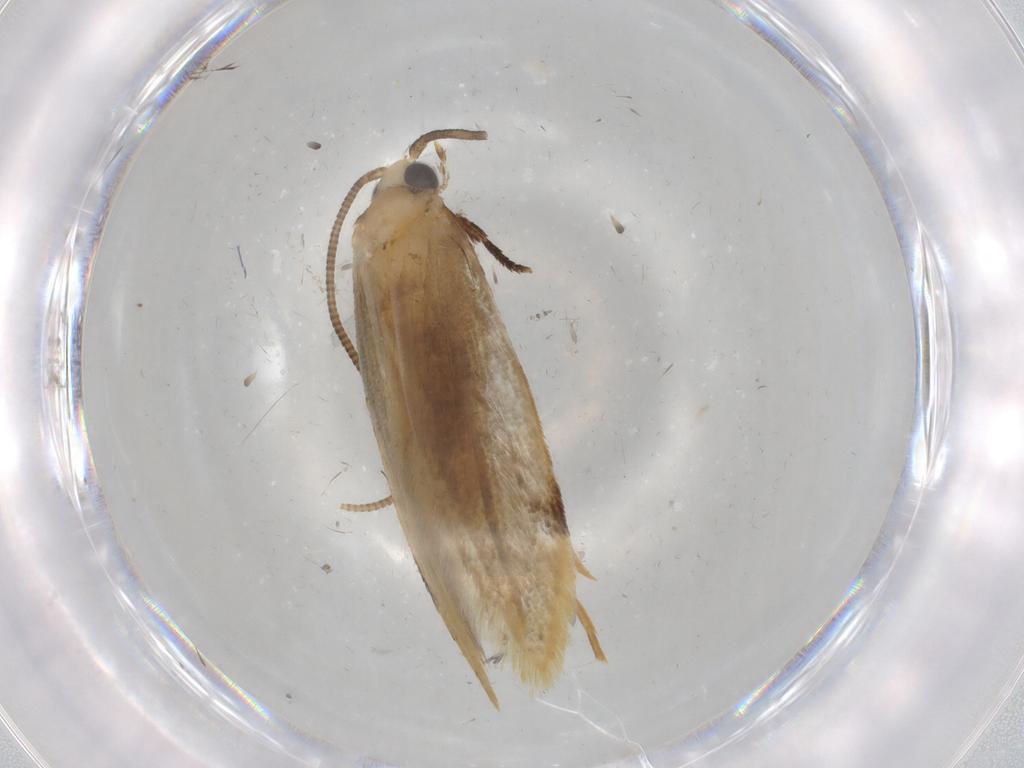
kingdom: Animalia
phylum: Arthropoda
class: Insecta
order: Lepidoptera
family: Tineidae
